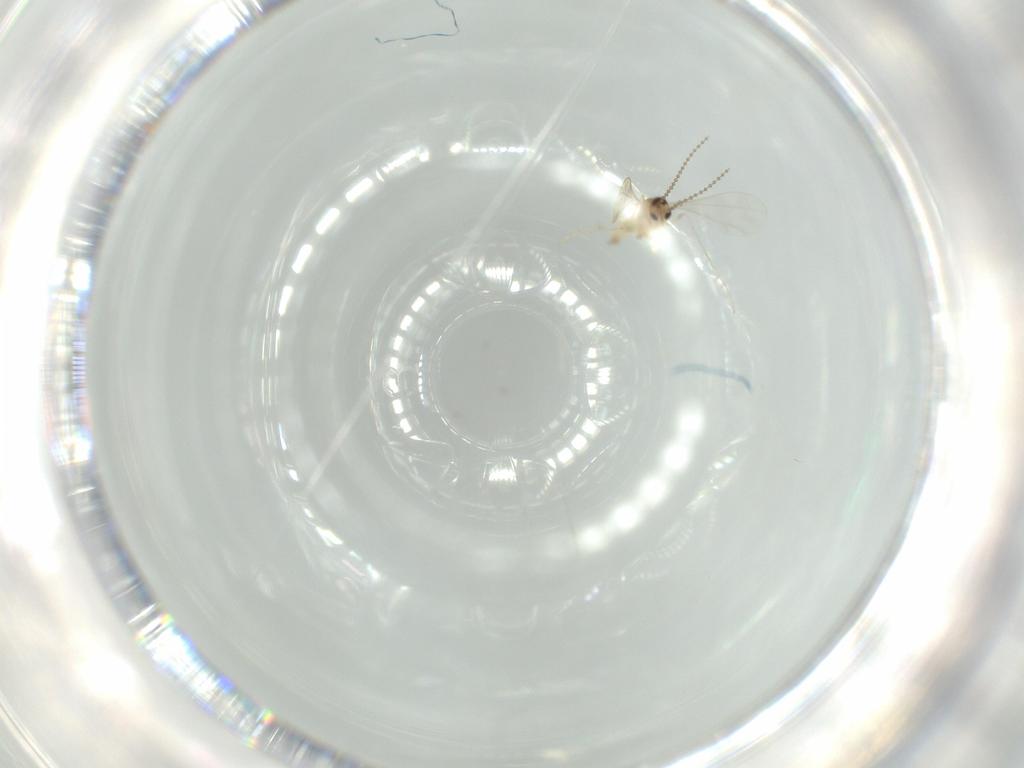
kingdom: Animalia
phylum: Arthropoda
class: Insecta
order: Diptera
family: Cecidomyiidae
